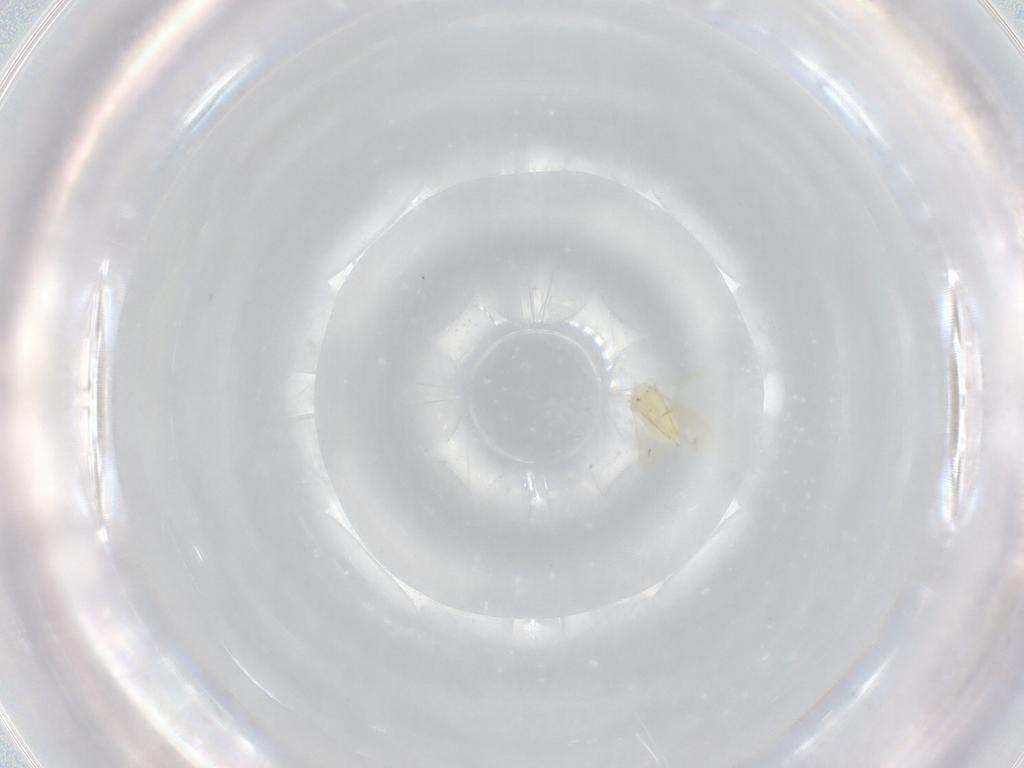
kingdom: Animalia
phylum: Arthropoda
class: Insecta
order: Hymenoptera
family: Aphelinidae
